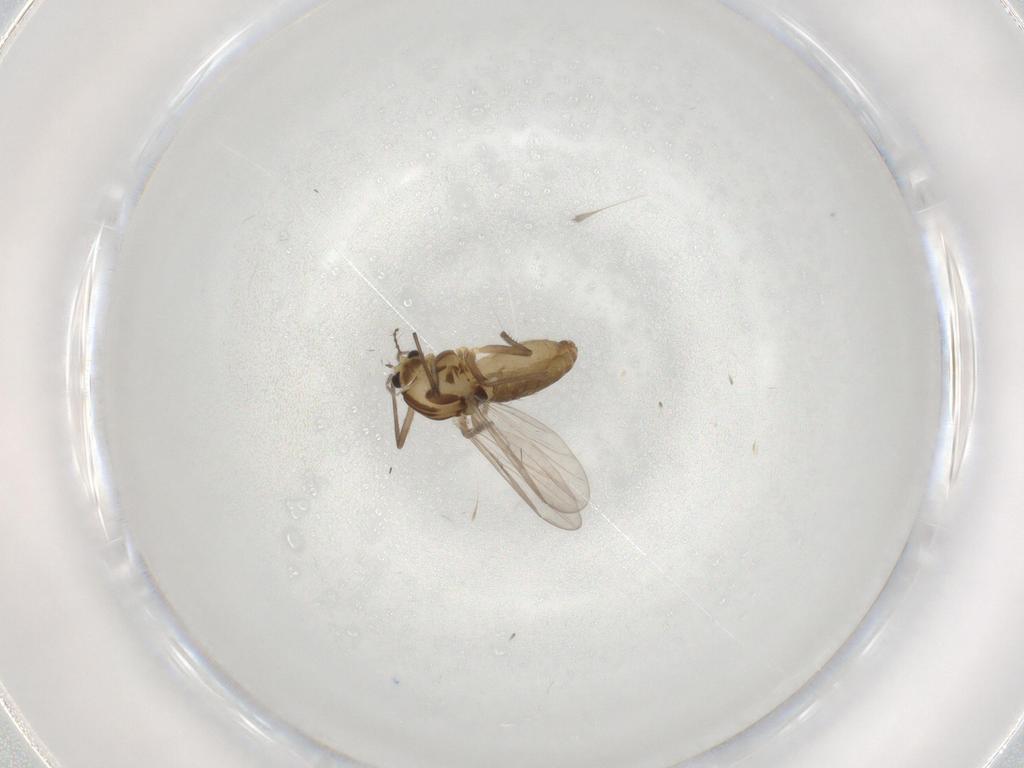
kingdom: Animalia
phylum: Arthropoda
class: Insecta
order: Diptera
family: Chironomidae
